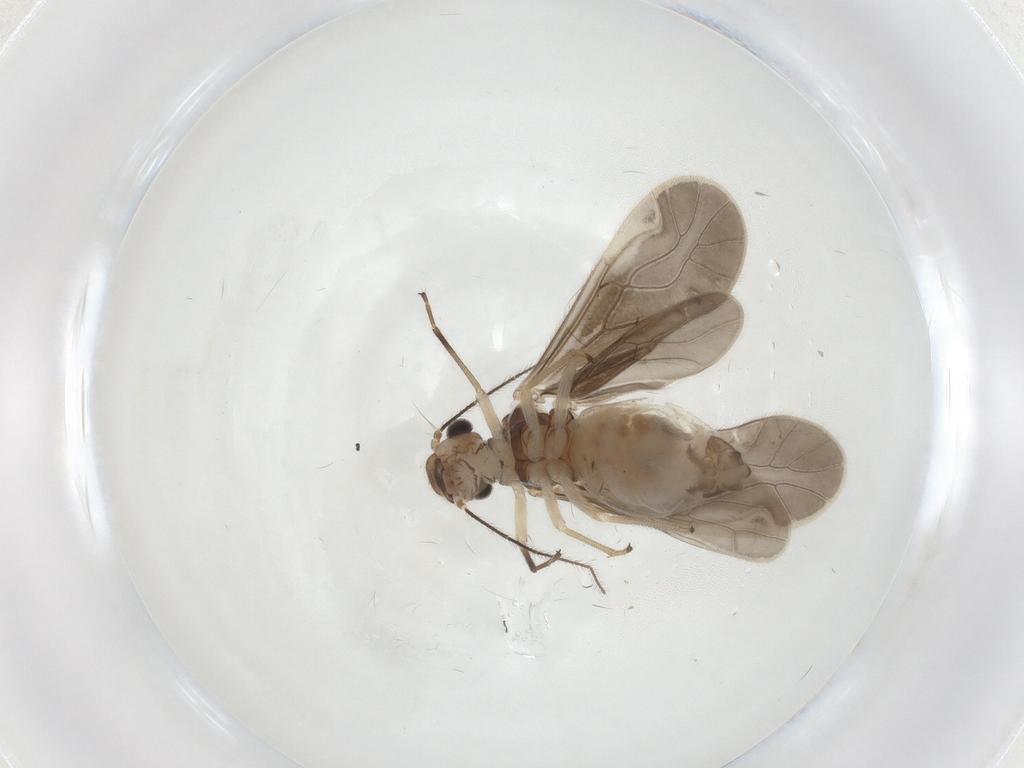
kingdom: Animalia
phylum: Arthropoda
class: Insecta
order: Psocodea
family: Caeciliusidae
